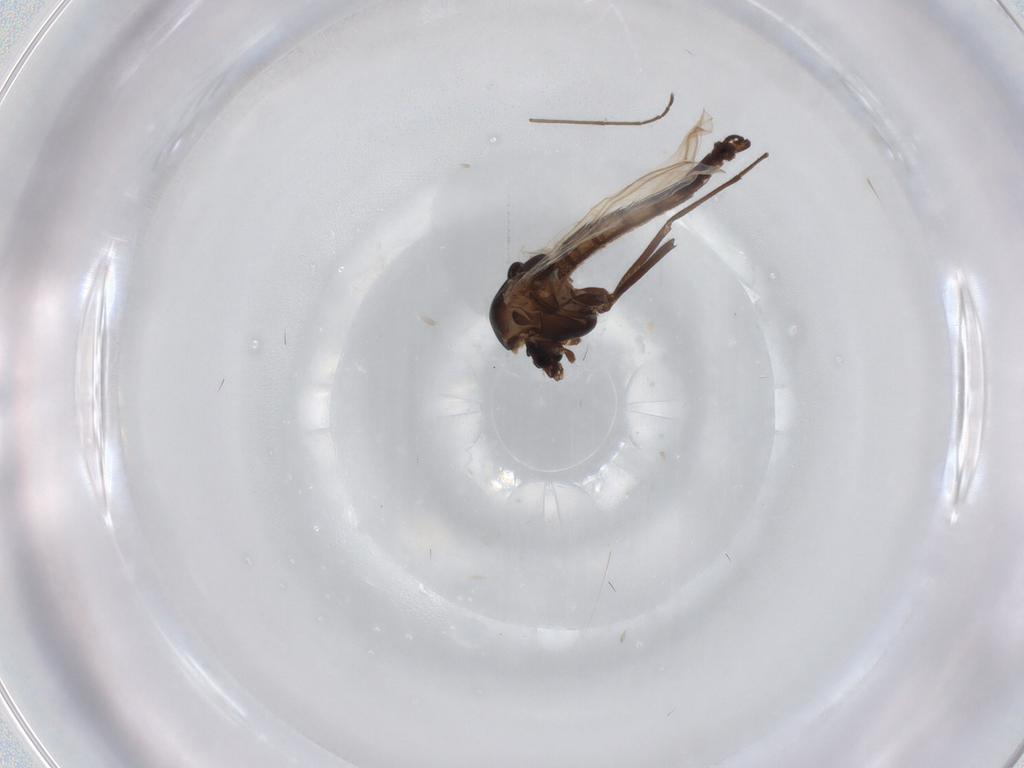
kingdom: Animalia
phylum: Arthropoda
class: Insecta
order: Diptera
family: Chironomidae
